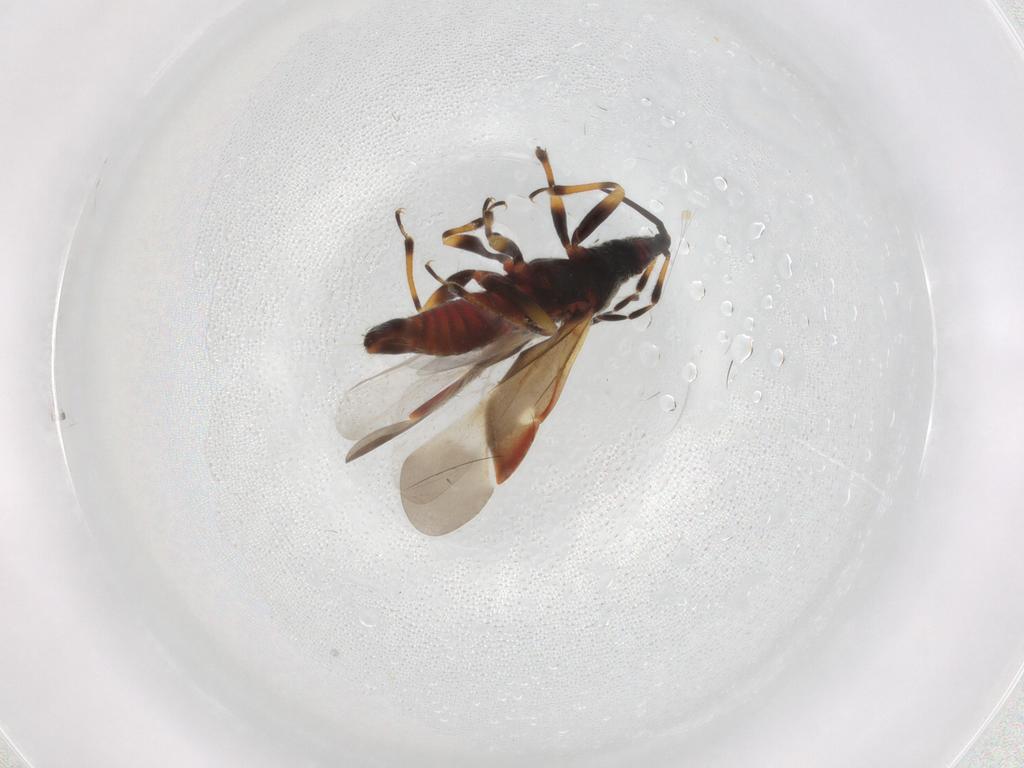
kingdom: Animalia
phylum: Arthropoda
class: Insecta
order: Hemiptera
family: Anthocoridae
